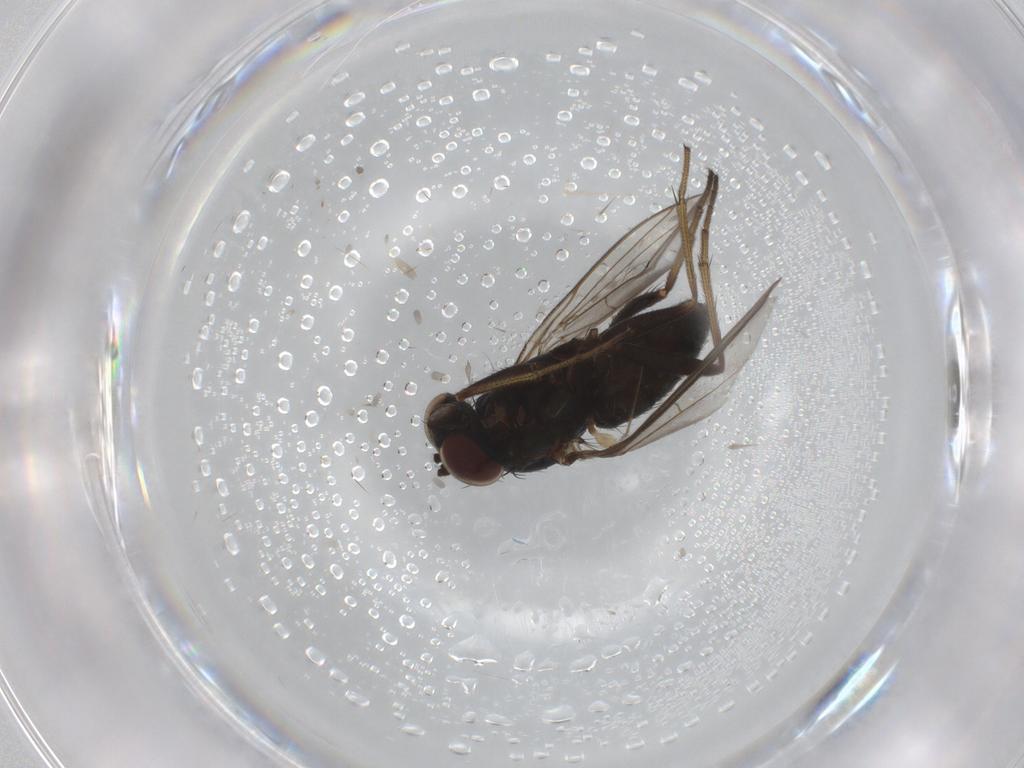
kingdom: Animalia
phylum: Arthropoda
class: Insecta
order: Diptera
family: Dolichopodidae
